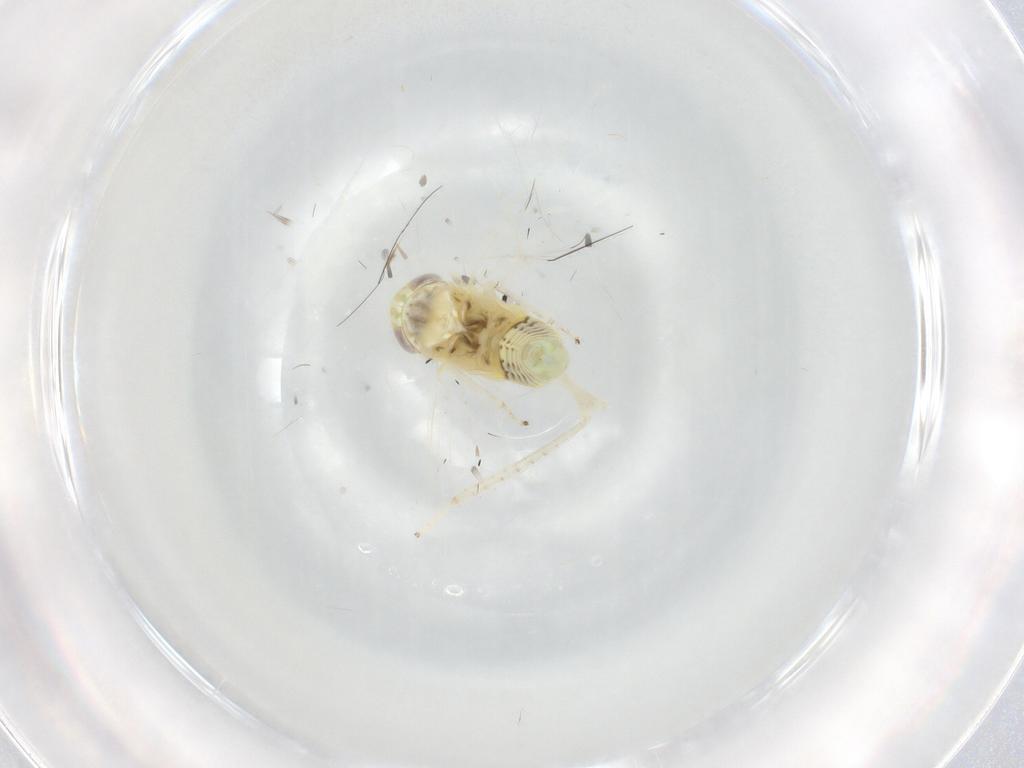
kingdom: Animalia
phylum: Arthropoda
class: Insecta
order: Hemiptera
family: Cicadellidae
